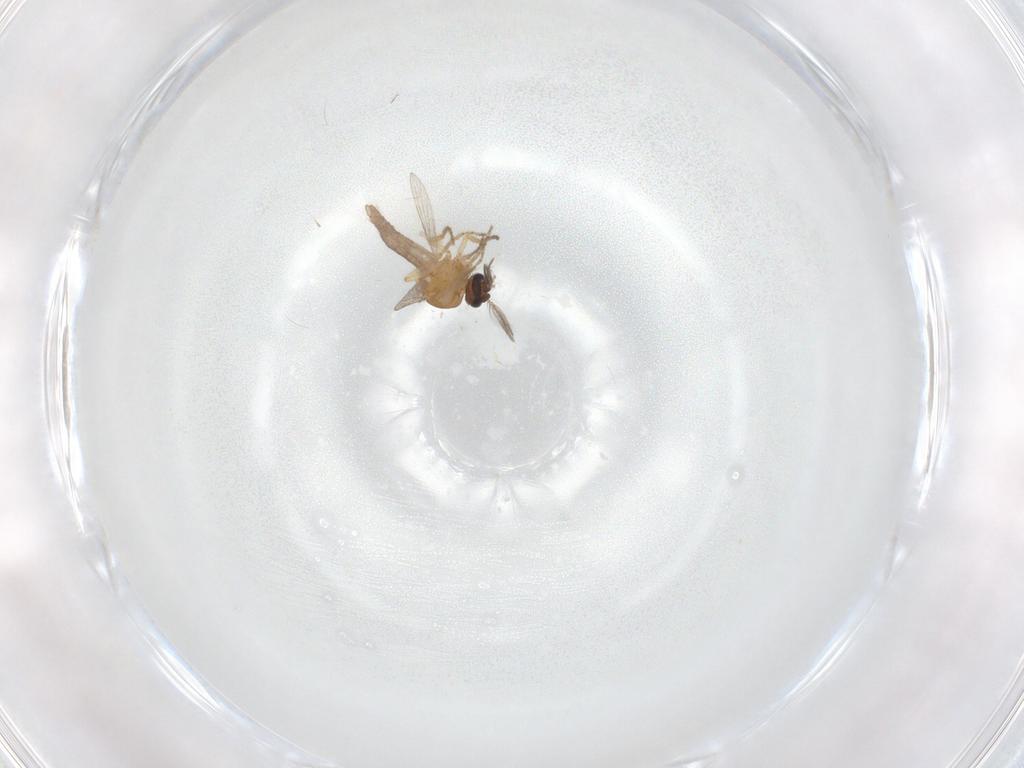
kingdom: Animalia
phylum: Arthropoda
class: Insecta
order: Diptera
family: Ceratopogonidae
